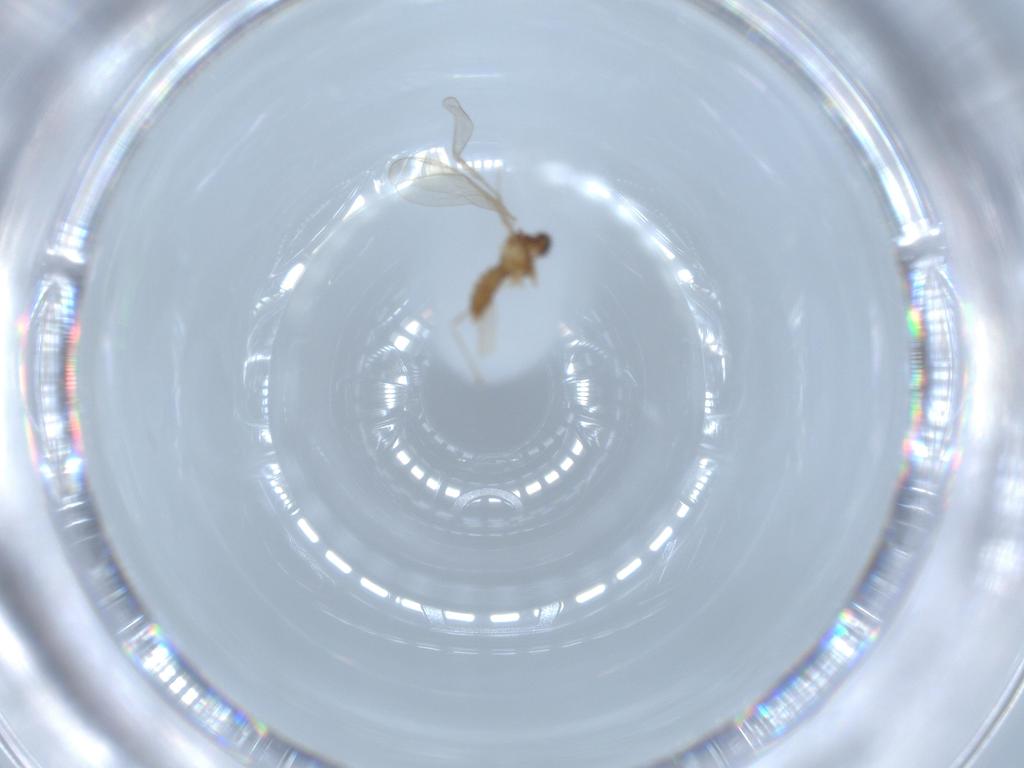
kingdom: Animalia
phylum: Arthropoda
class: Insecta
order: Diptera
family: Cecidomyiidae
